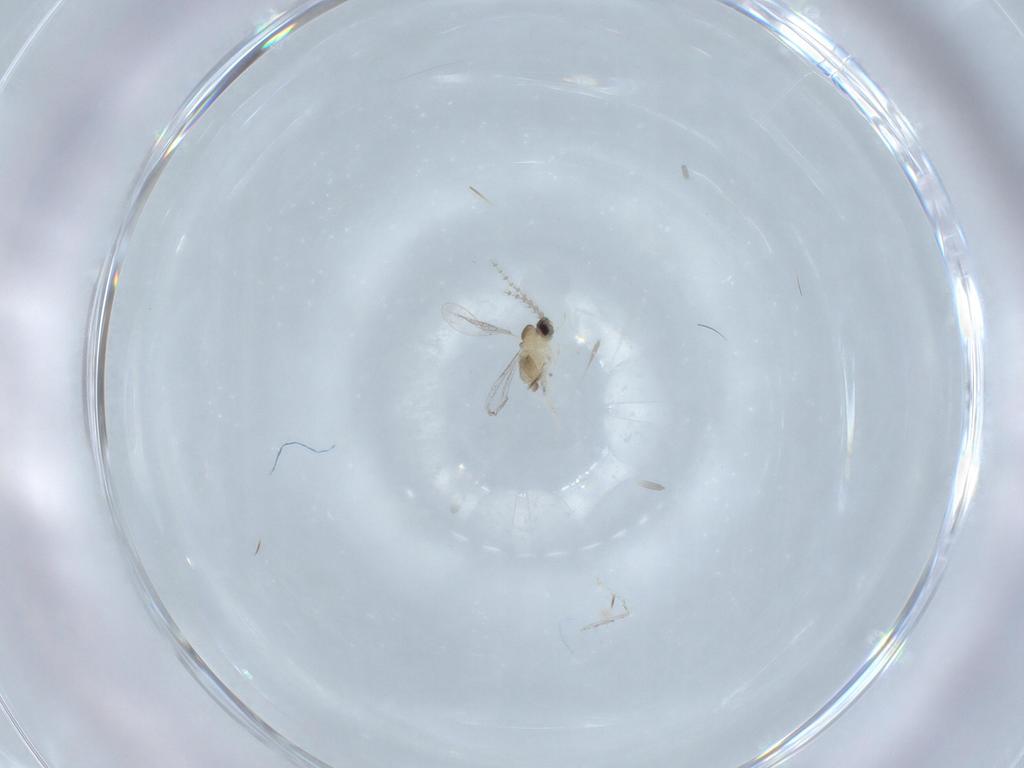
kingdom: Animalia
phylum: Arthropoda
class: Insecta
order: Diptera
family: Cecidomyiidae
